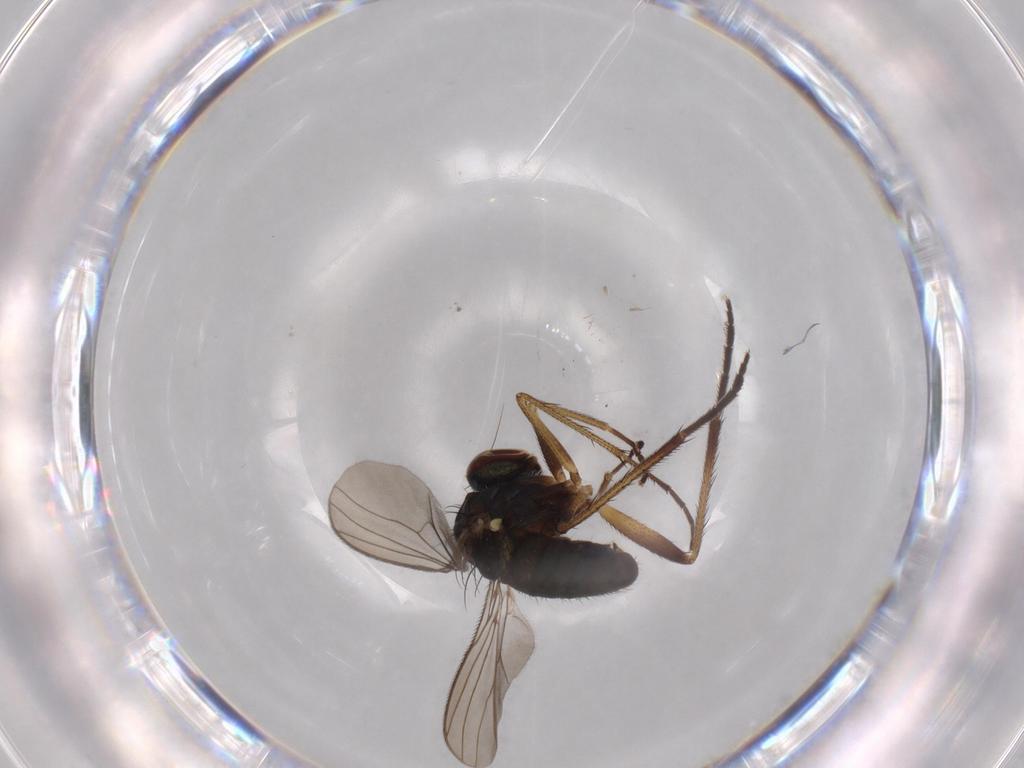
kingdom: Animalia
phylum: Arthropoda
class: Insecta
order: Diptera
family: Dolichopodidae
